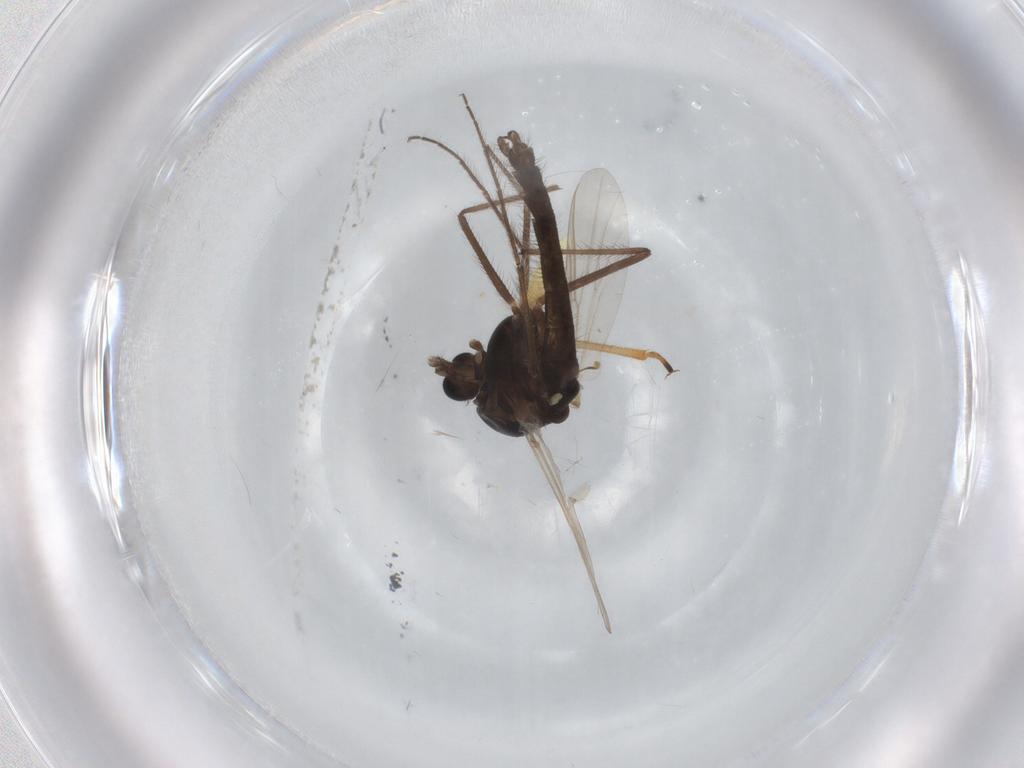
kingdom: Animalia
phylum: Arthropoda
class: Insecta
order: Diptera
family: Chironomidae
